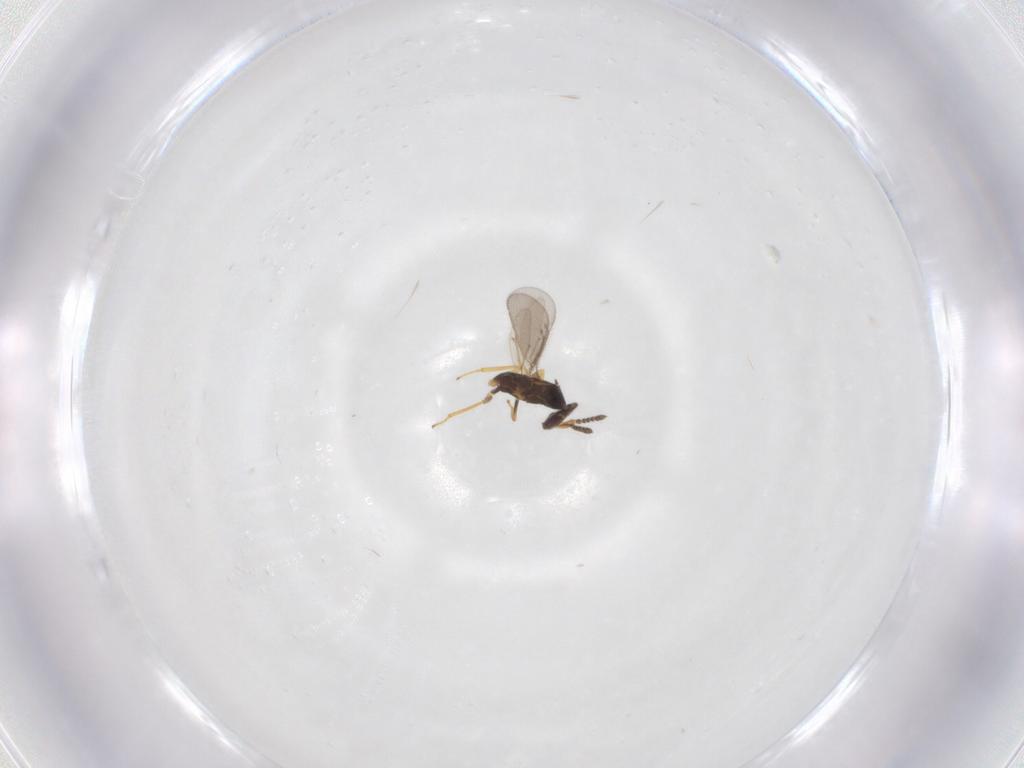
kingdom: Animalia
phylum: Arthropoda
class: Insecta
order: Diptera
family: Cecidomyiidae
